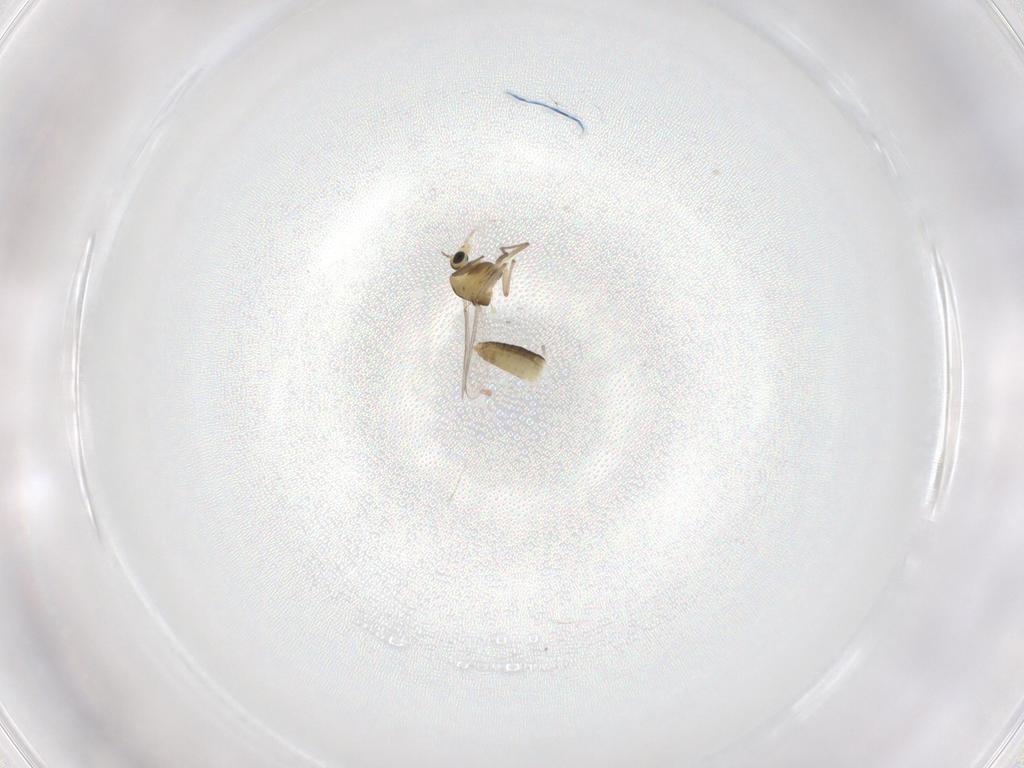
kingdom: Animalia
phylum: Arthropoda
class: Insecta
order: Diptera
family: Chironomidae
